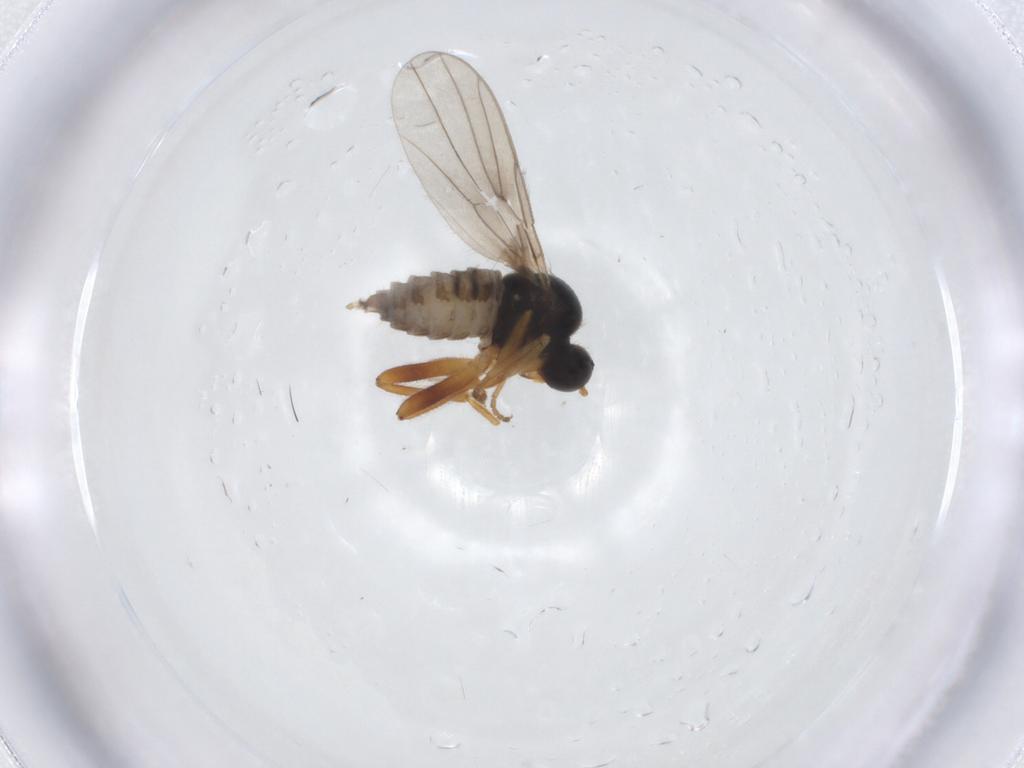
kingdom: Animalia
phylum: Arthropoda
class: Insecta
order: Diptera
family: Hybotidae
